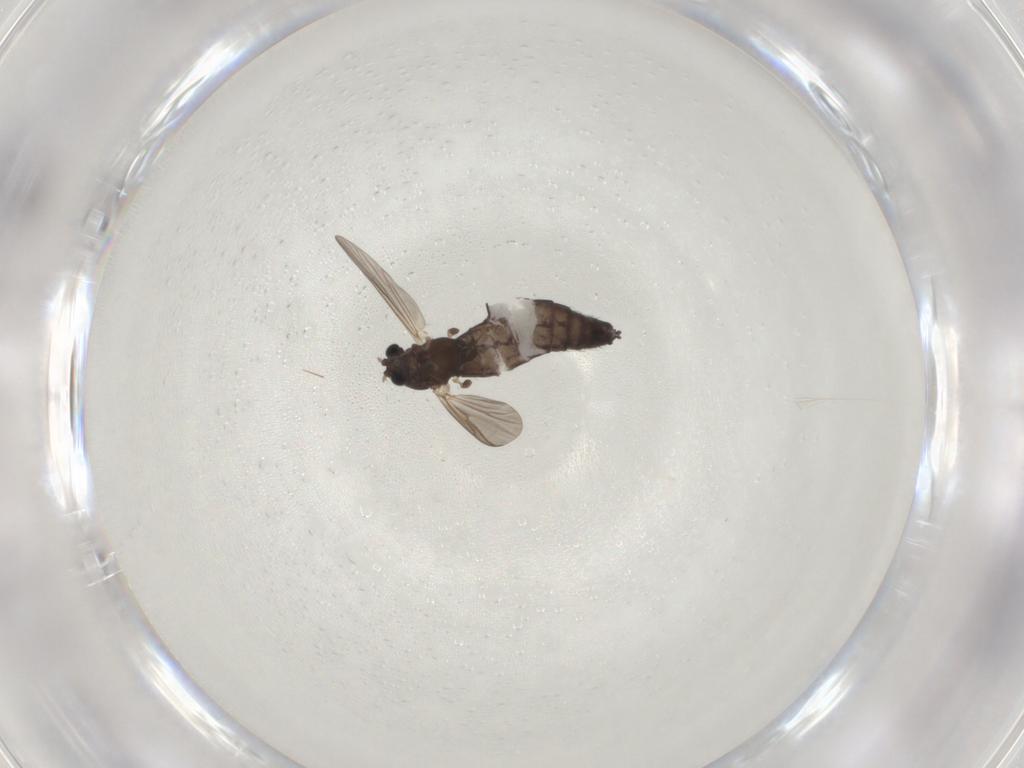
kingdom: Animalia
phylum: Arthropoda
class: Insecta
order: Diptera
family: Chironomidae
